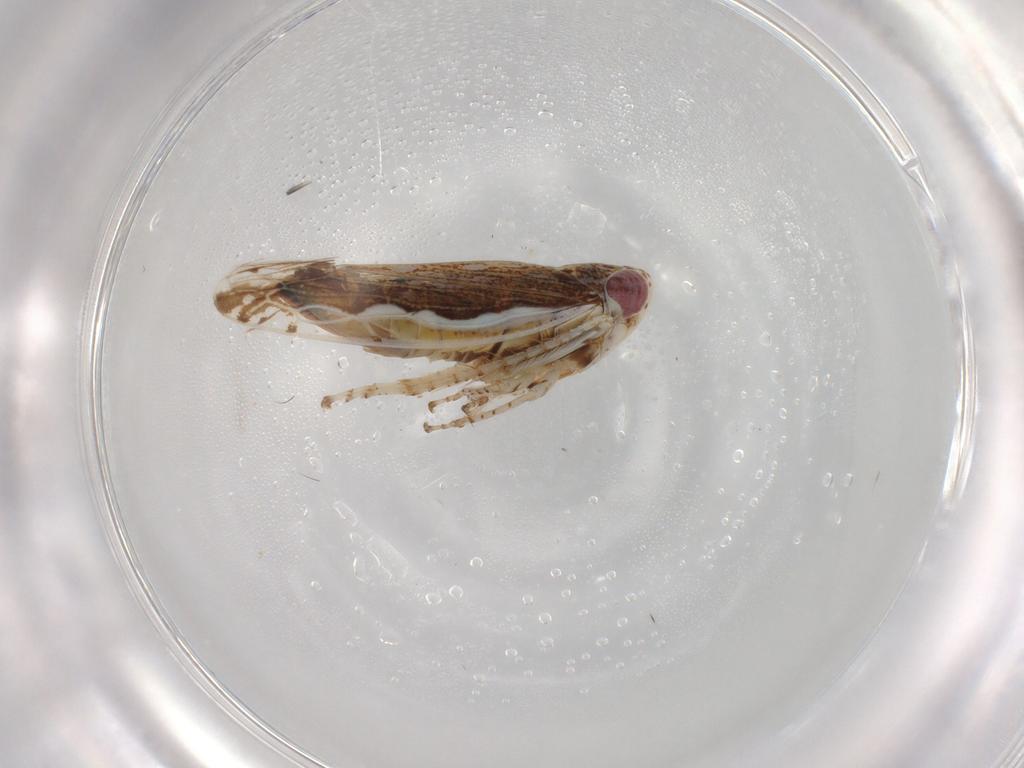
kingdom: Animalia
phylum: Arthropoda
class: Insecta
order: Hemiptera
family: Cicadellidae
